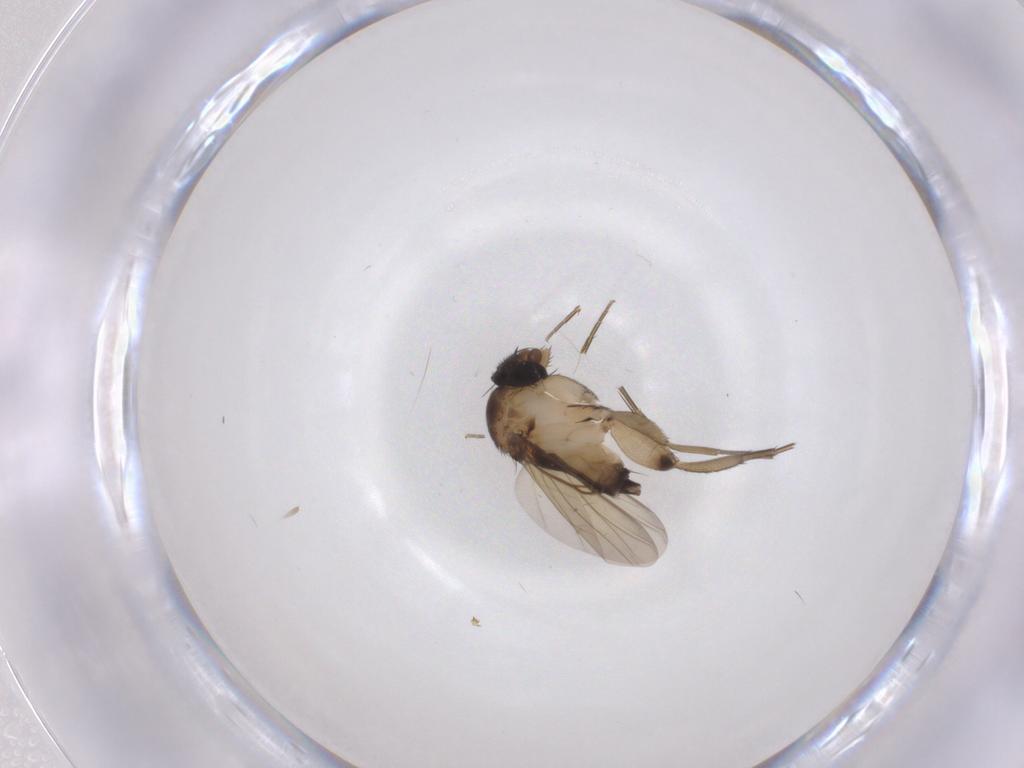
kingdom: Animalia
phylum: Arthropoda
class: Insecta
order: Diptera
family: Phoridae
